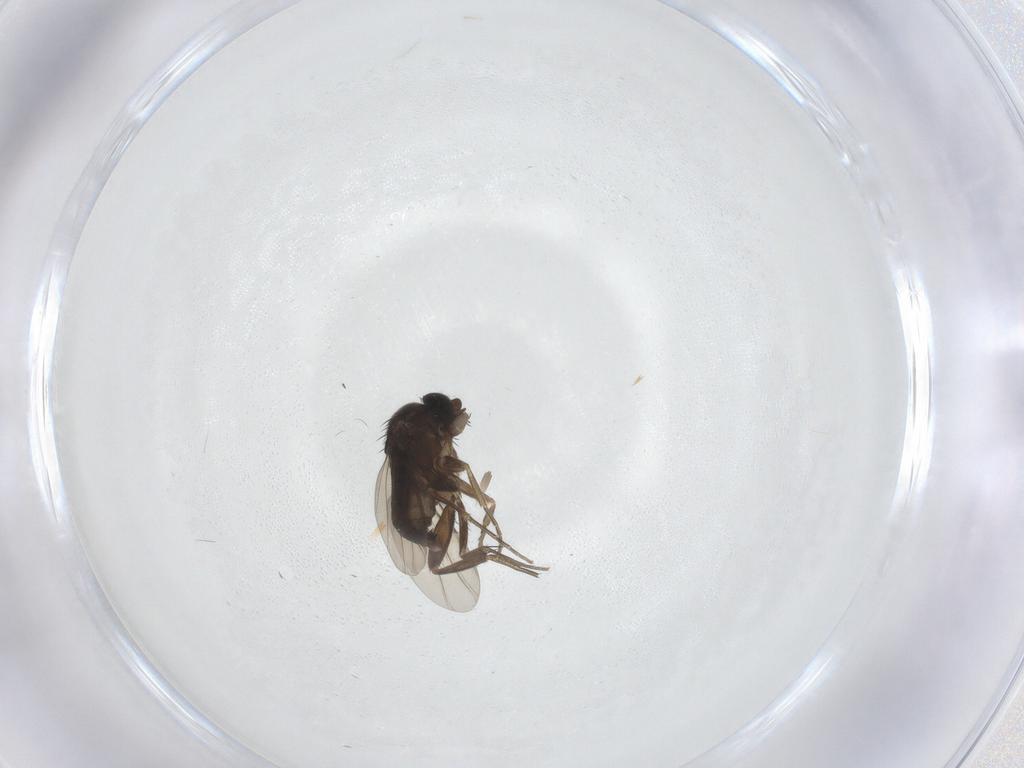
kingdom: Animalia
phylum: Arthropoda
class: Insecta
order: Diptera
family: Phoridae
